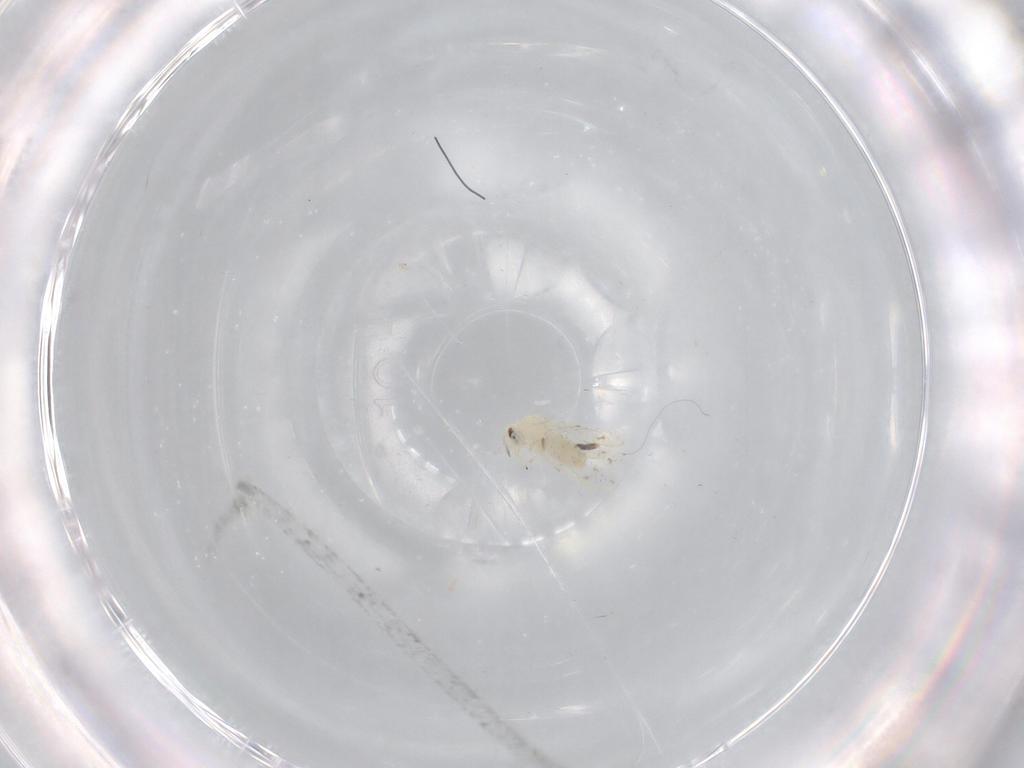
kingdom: Animalia
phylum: Arthropoda
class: Insecta
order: Hemiptera
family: Aleyrodidae
